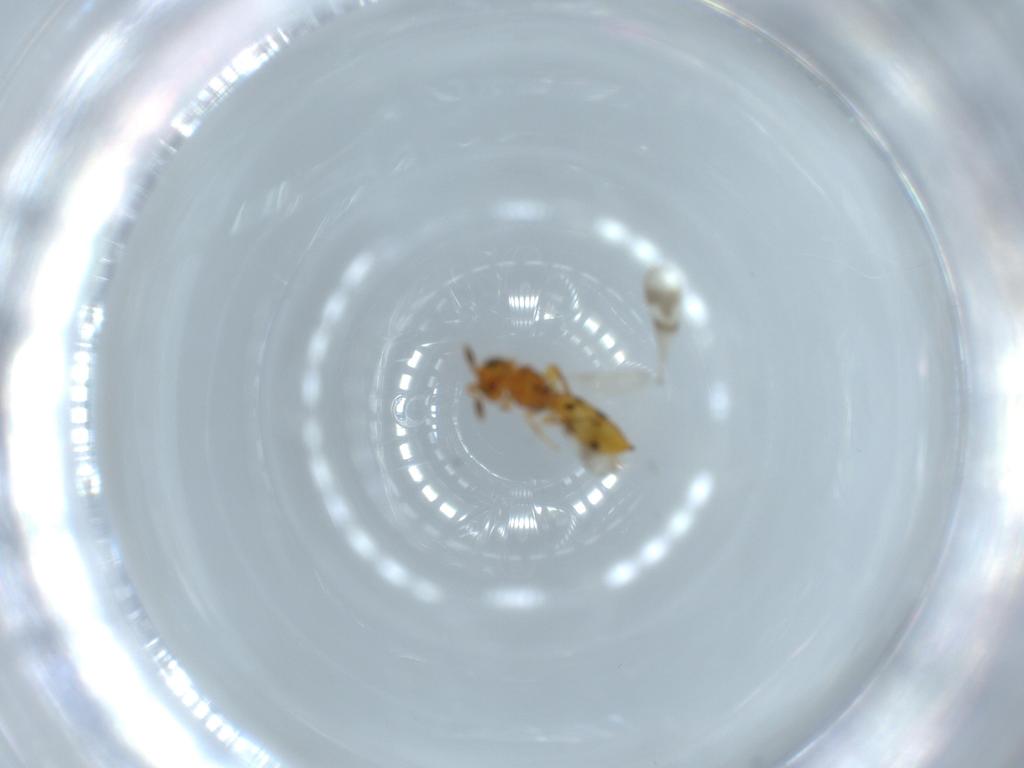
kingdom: Animalia
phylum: Arthropoda
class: Insecta
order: Hymenoptera
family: Scelionidae
